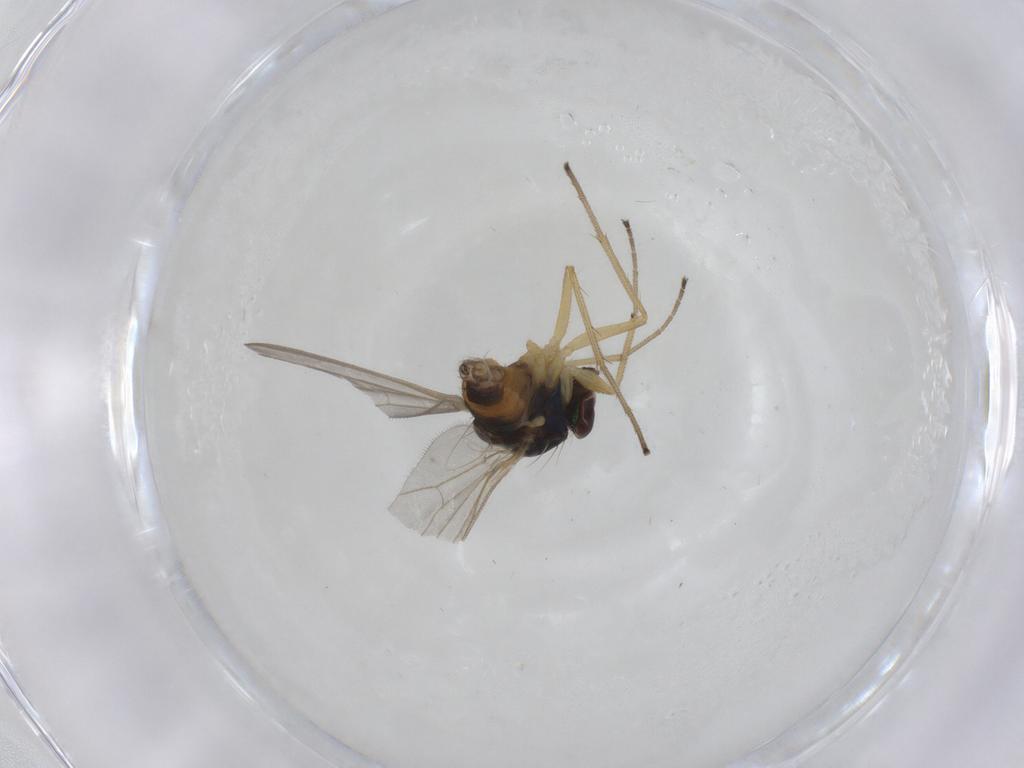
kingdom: Animalia
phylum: Arthropoda
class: Insecta
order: Diptera
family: Dolichopodidae
